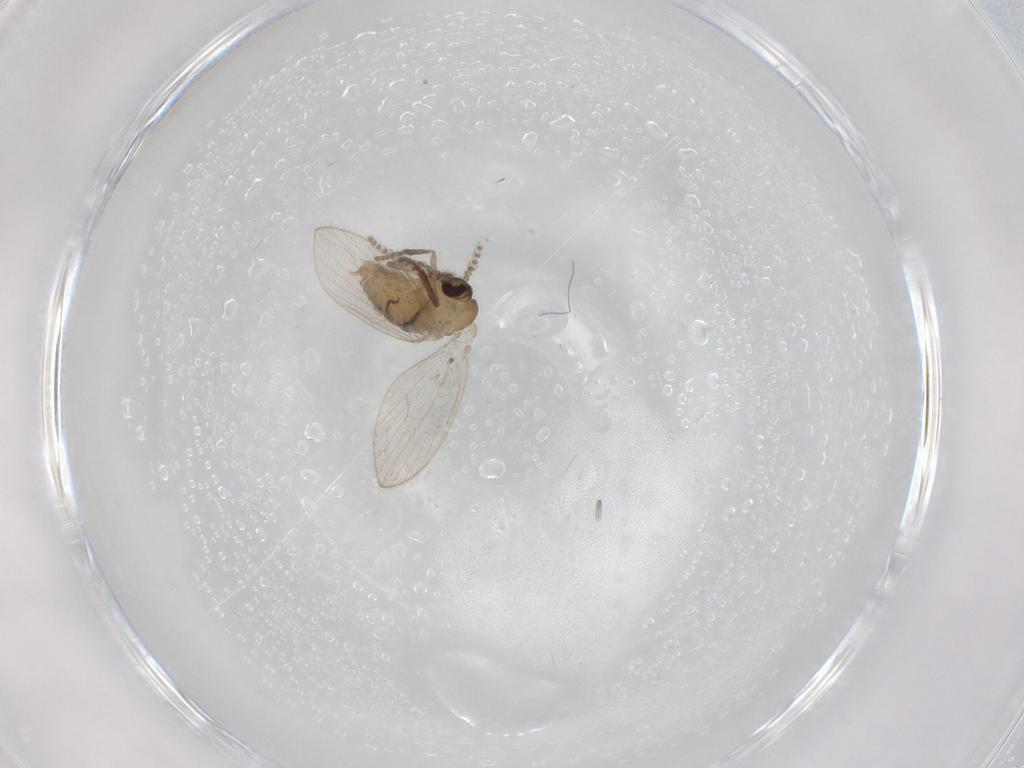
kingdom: Animalia
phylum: Arthropoda
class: Insecta
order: Diptera
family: Psychodidae
